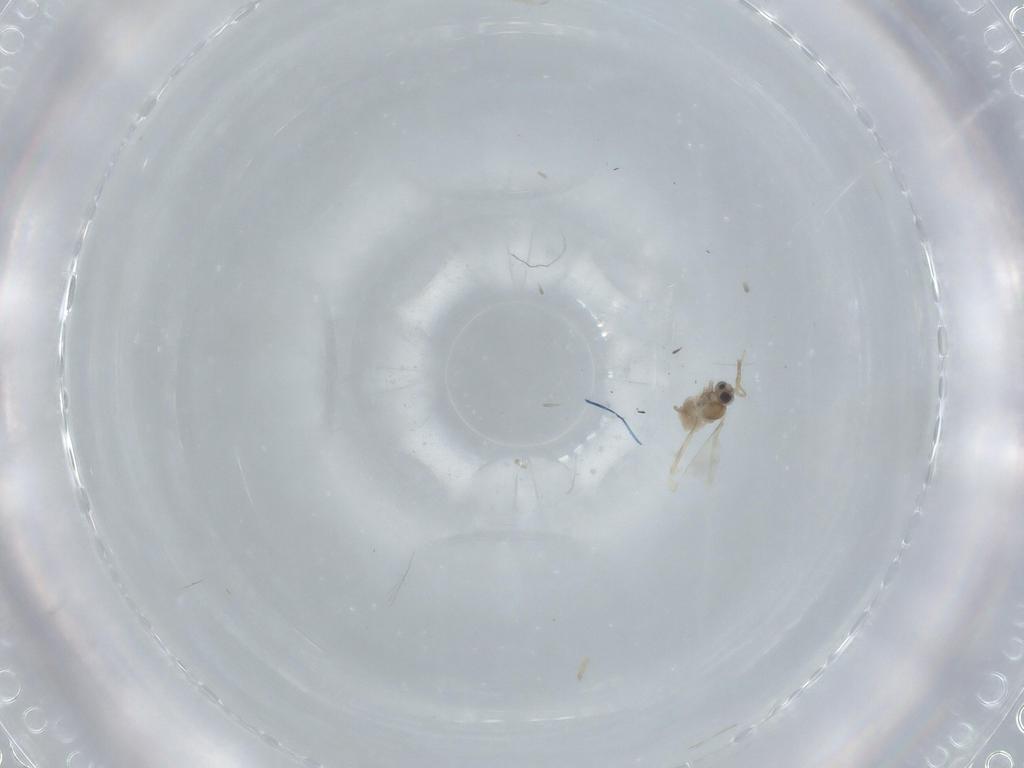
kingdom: Animalia
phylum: Arthropoda
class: Insecta
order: Diptera
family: Cecidomyiidae
